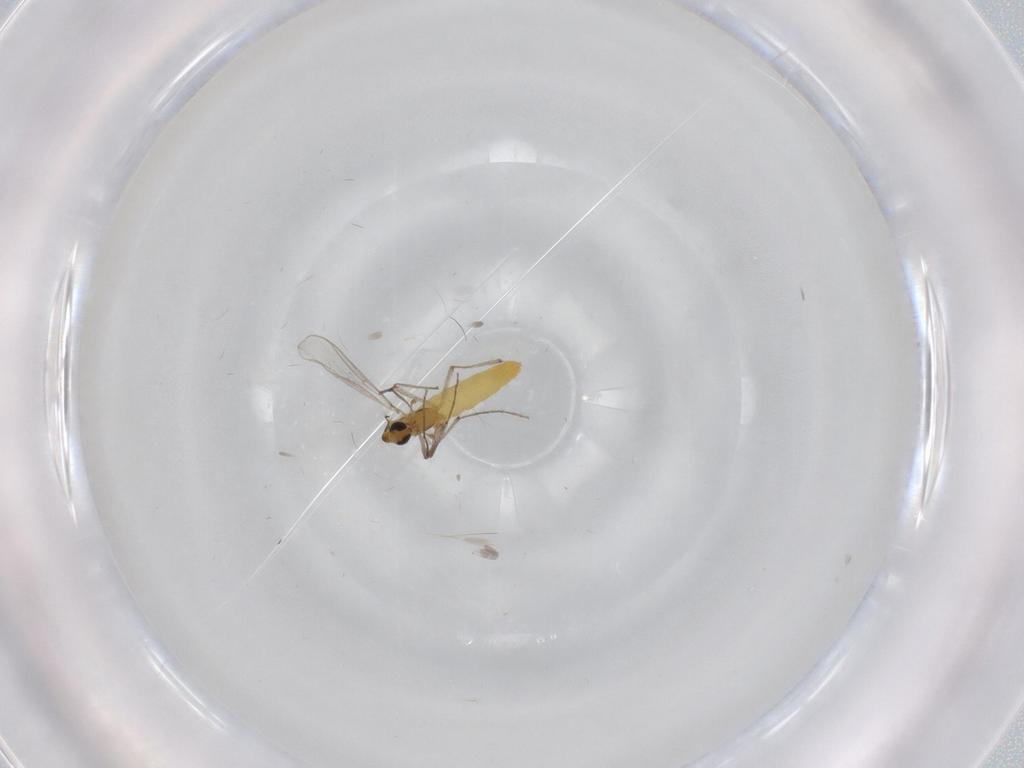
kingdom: Animalia
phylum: Arthropoda
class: Insecta
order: Diptera
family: Chironomidae
